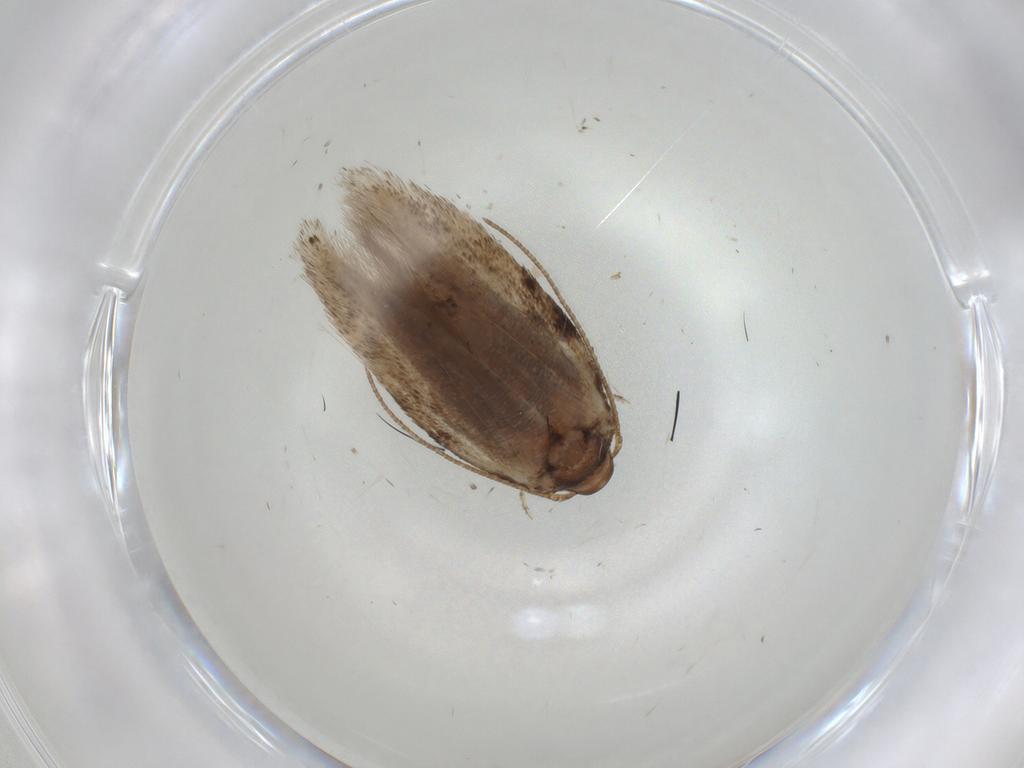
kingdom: Animalia
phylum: Arthropoda
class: Insecta
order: Lepidoptera
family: Gelechiidae
